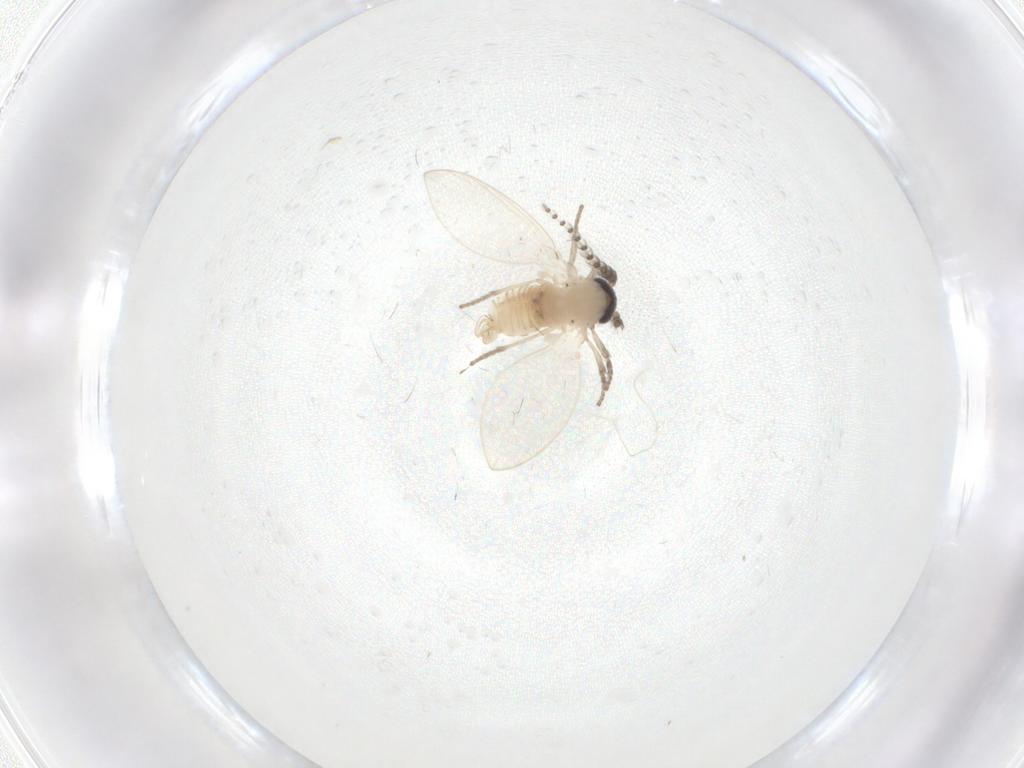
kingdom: Animalia
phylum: Arthropoda
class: Insecta
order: Diptera
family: Psychodidae
